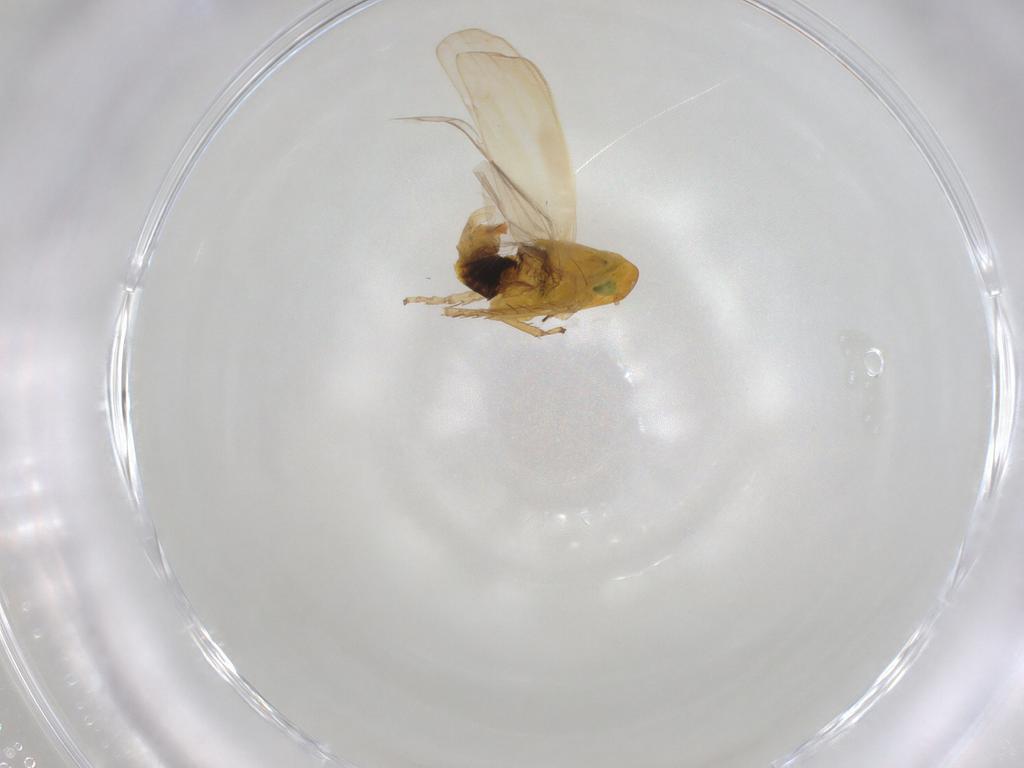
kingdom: Animalia
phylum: Arthropoda
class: Insecta
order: Hemiptera
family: Cicadellidae
